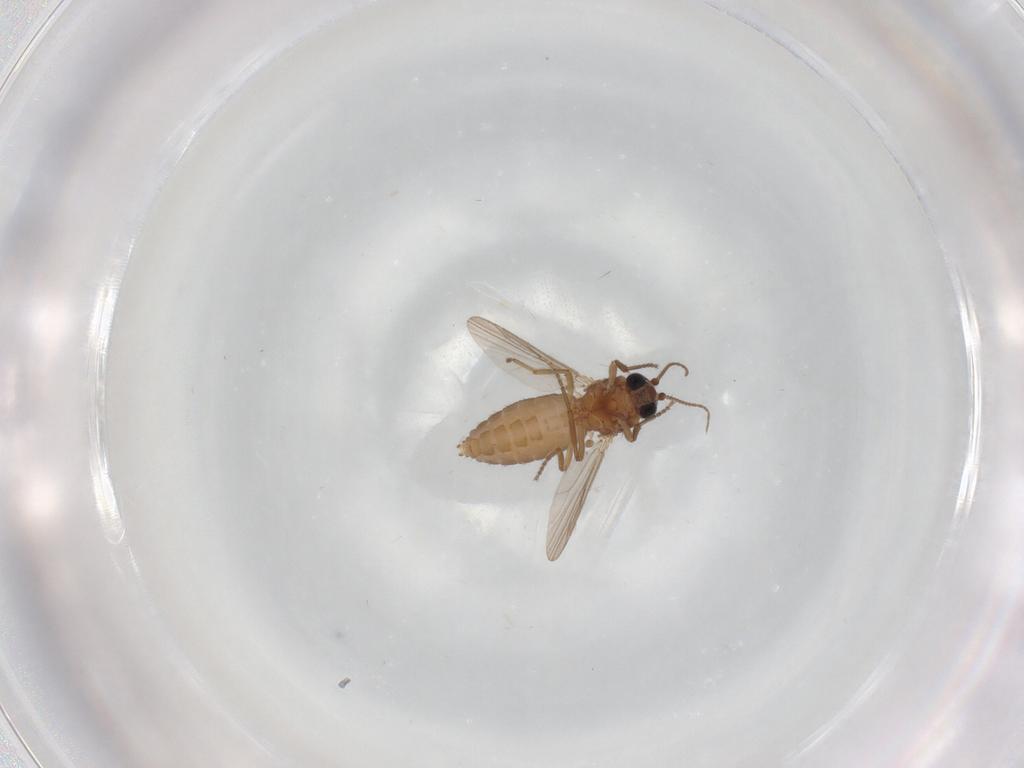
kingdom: Animalia
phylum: Arthropoda
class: Insecta
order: Diptera
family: Ceratopogonidae
